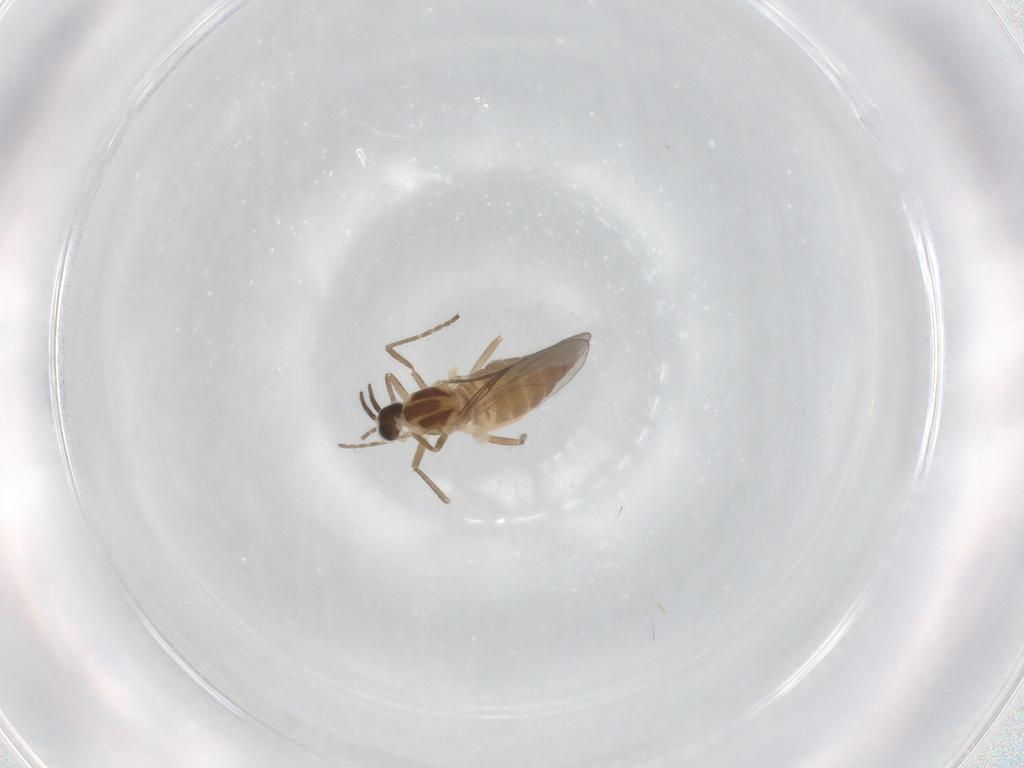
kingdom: Animalia
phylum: Arthropoda
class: Insecta
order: Diptera
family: Cecidomyiidae
